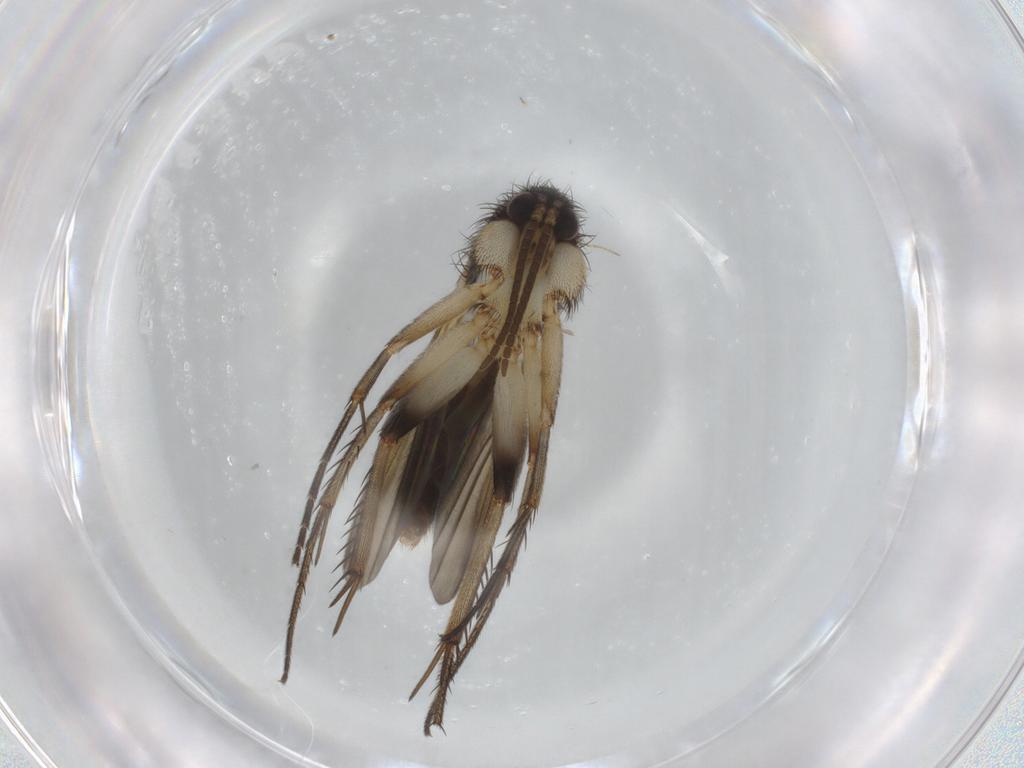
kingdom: Animalia
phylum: Arthropoda
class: Insecta
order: Diptera
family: Mycetophilidae
